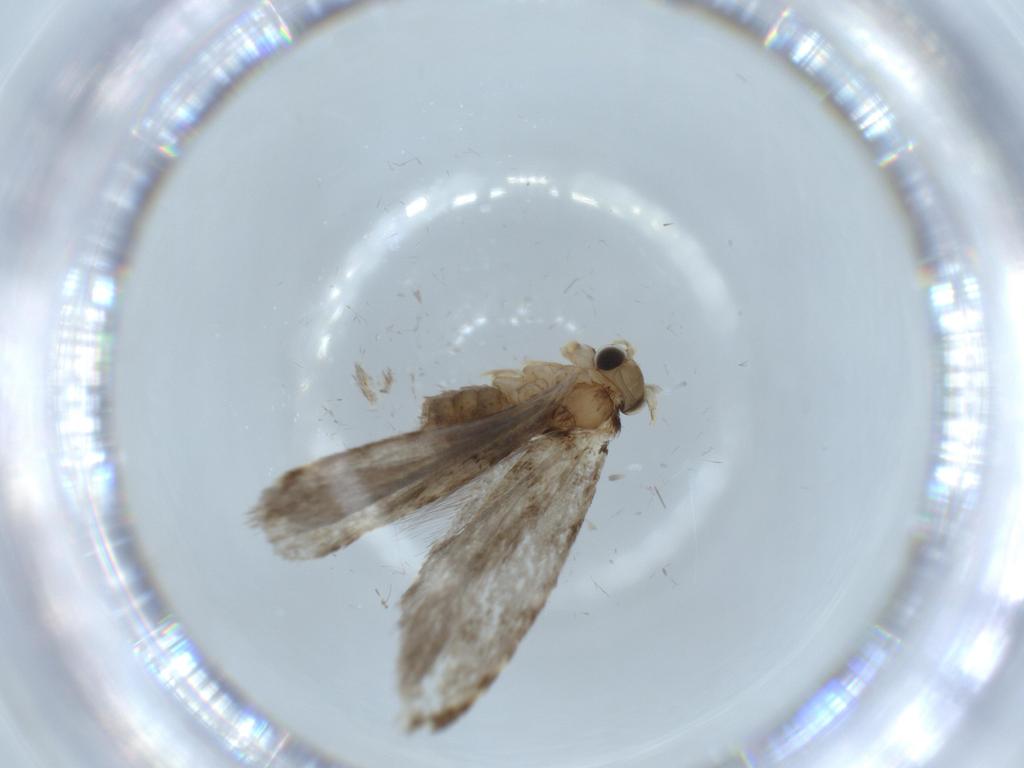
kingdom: Animalia
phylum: Arthropoda
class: Insecta
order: Lepidoptera
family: Tineidae
